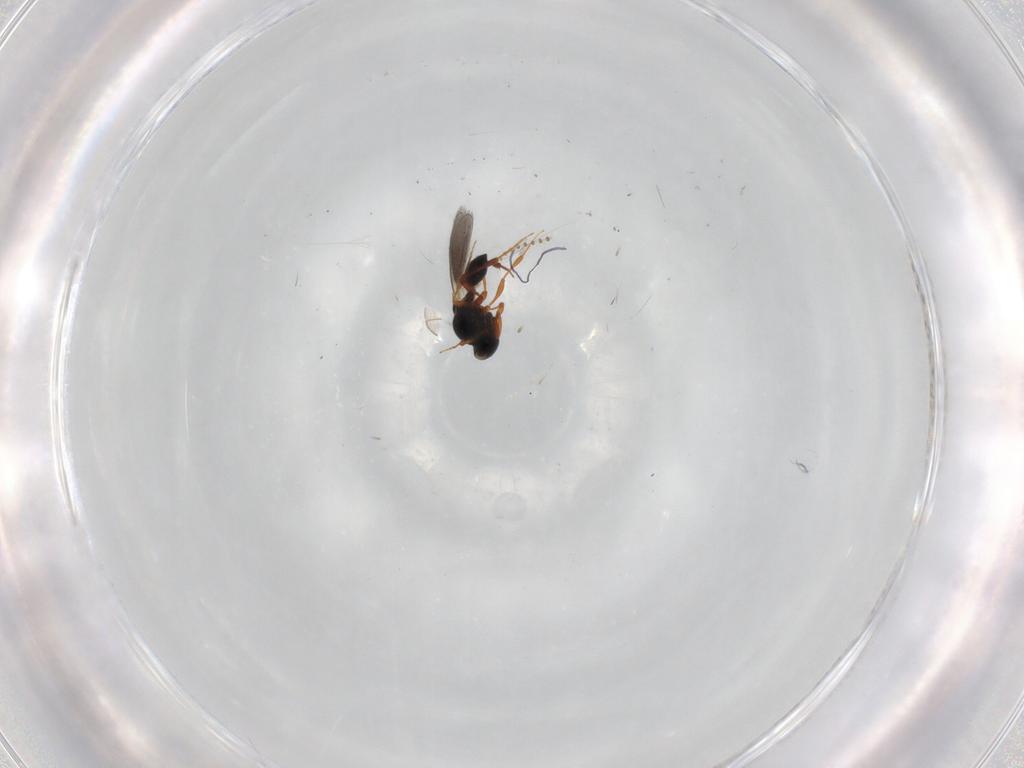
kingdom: Animalia
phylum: Arthropoda
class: Insecta
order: Hymenoptera
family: Platygastridae
